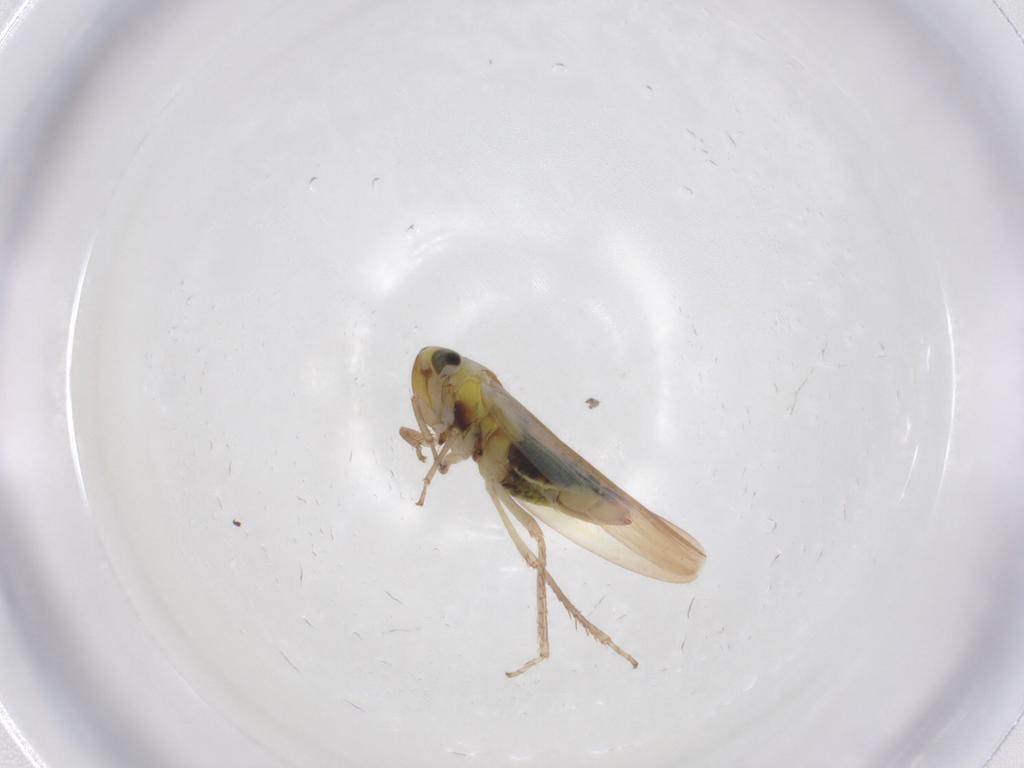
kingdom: Animalia
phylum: Arthropoda
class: Insecta
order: Hemiptera
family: Cicadellidae
